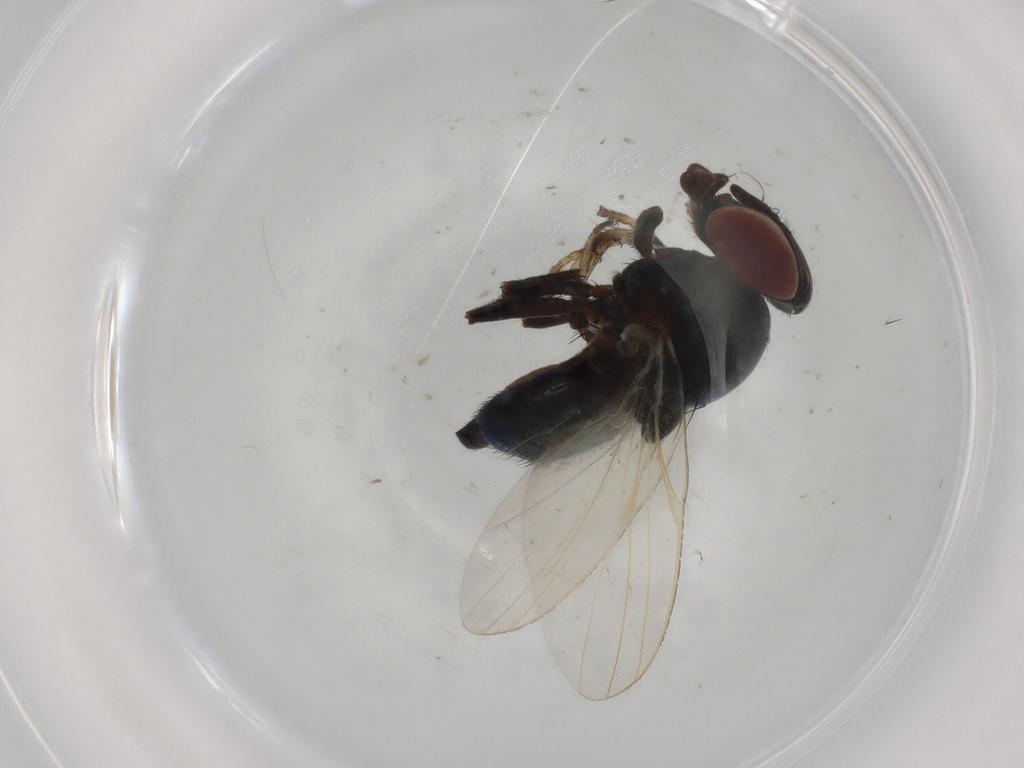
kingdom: Animalia
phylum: Arthropoda
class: Insecta
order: Diptera
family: Lonchaeidae
